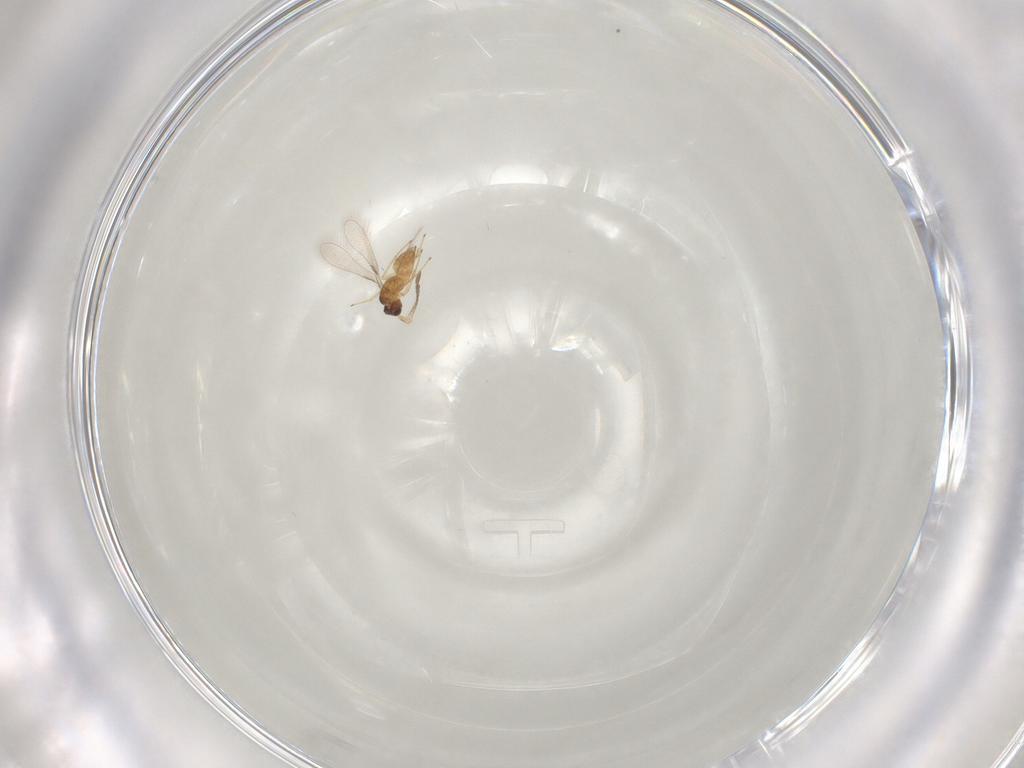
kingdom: Animalia
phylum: Arthropoda
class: Insecta
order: Hymenoptera
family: Mymaridae
